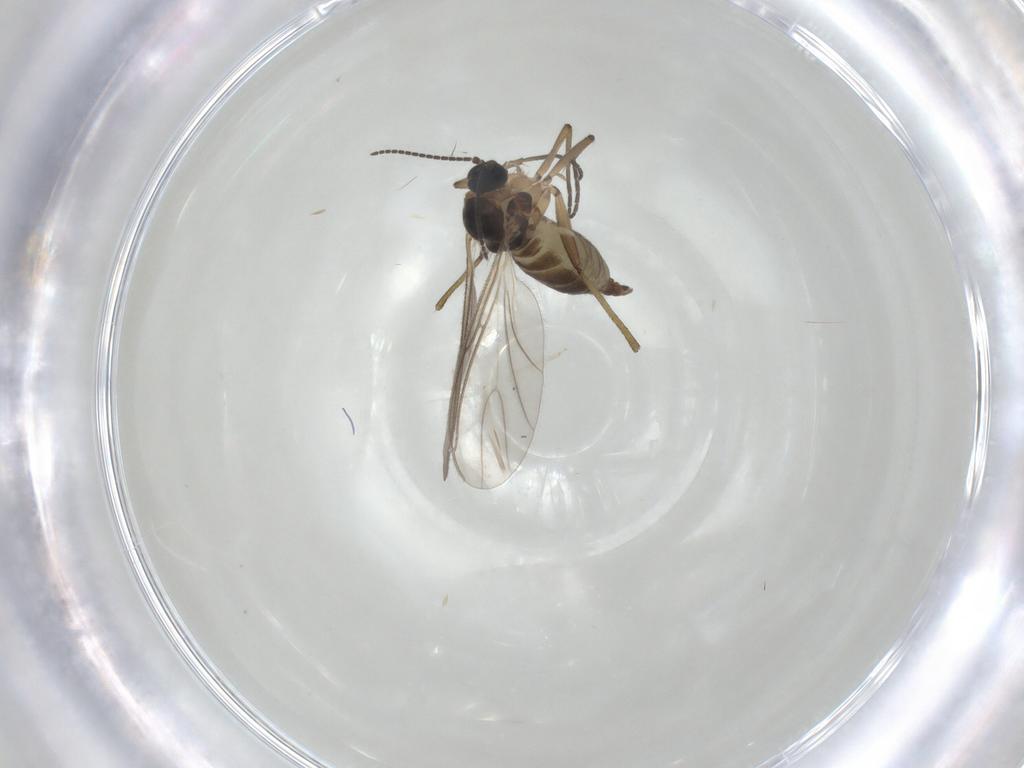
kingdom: Animalia
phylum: Arthropoda
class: Insecta
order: Diptera
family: Cecidomyiidae
